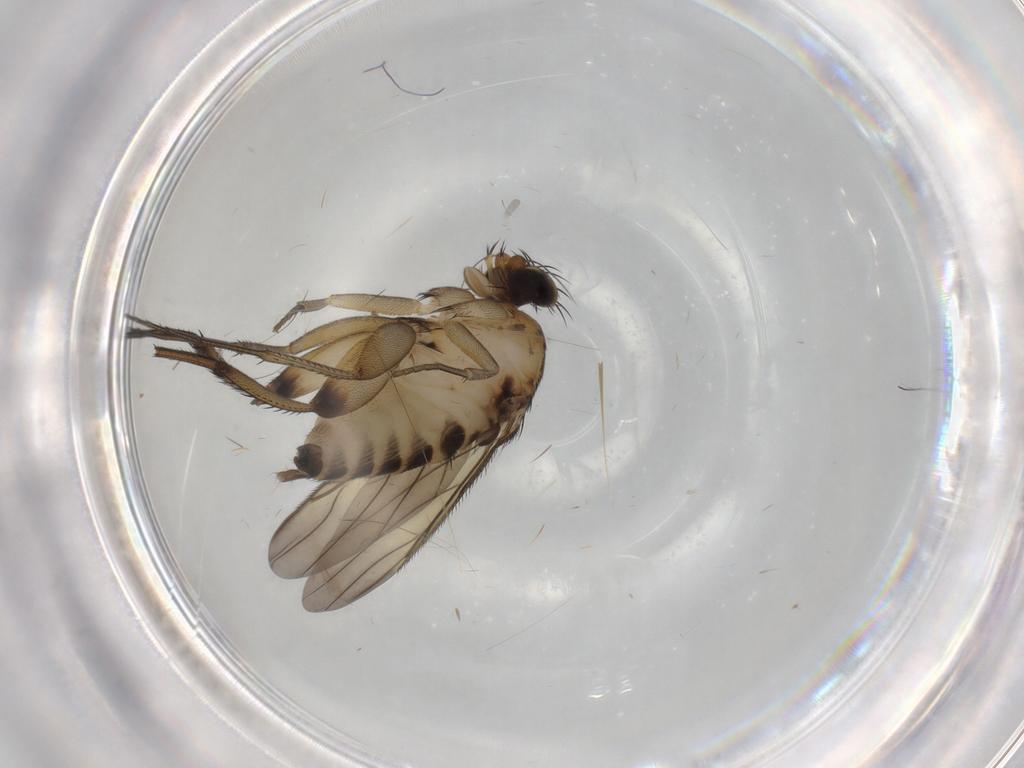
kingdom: Animalia
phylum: Arthropoda
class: Insecta
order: Diptera
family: Phoridae
